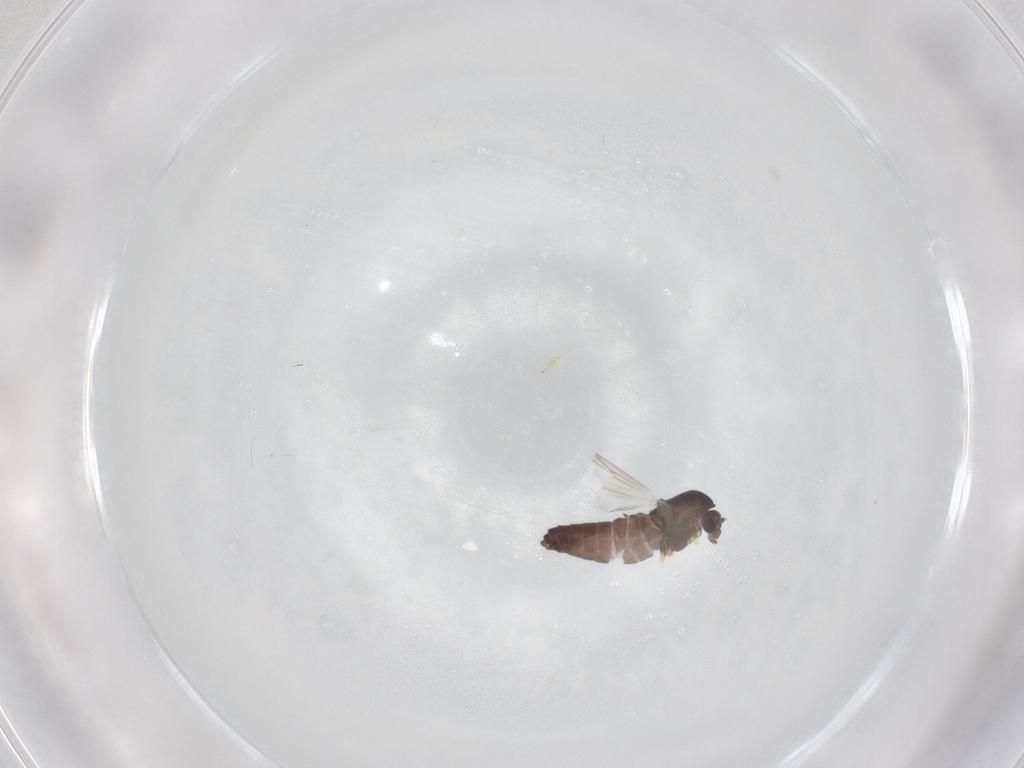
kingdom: Animalia
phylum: Arthropoda
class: Insecta
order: Diptera
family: Chironomidae
